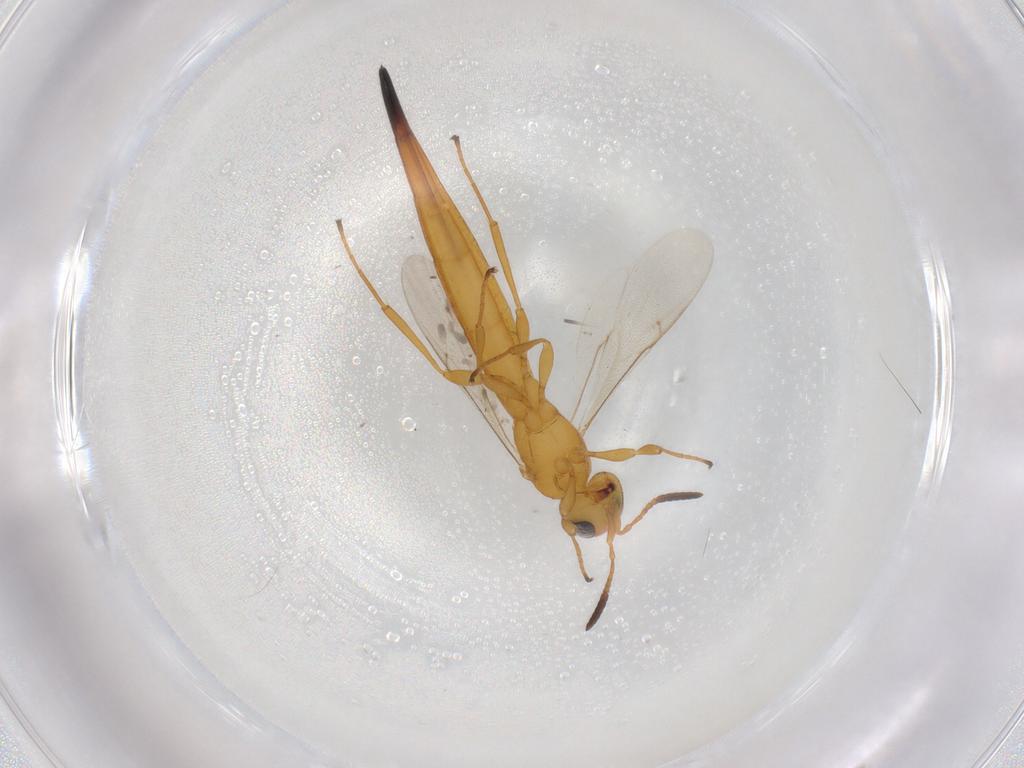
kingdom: Animalia
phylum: Arthropoda
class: Insecta
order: Hymenoptera
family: Scelionidae
